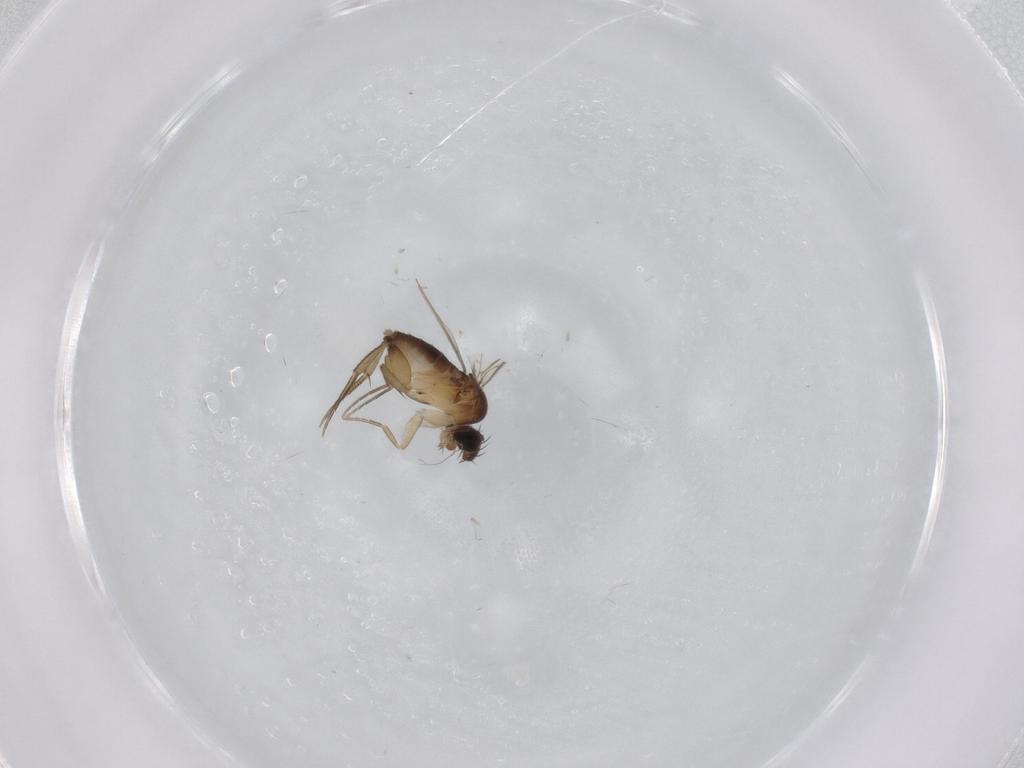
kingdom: Animalia
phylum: Arthropoda
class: Insecta
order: Diptera
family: Phoridae
